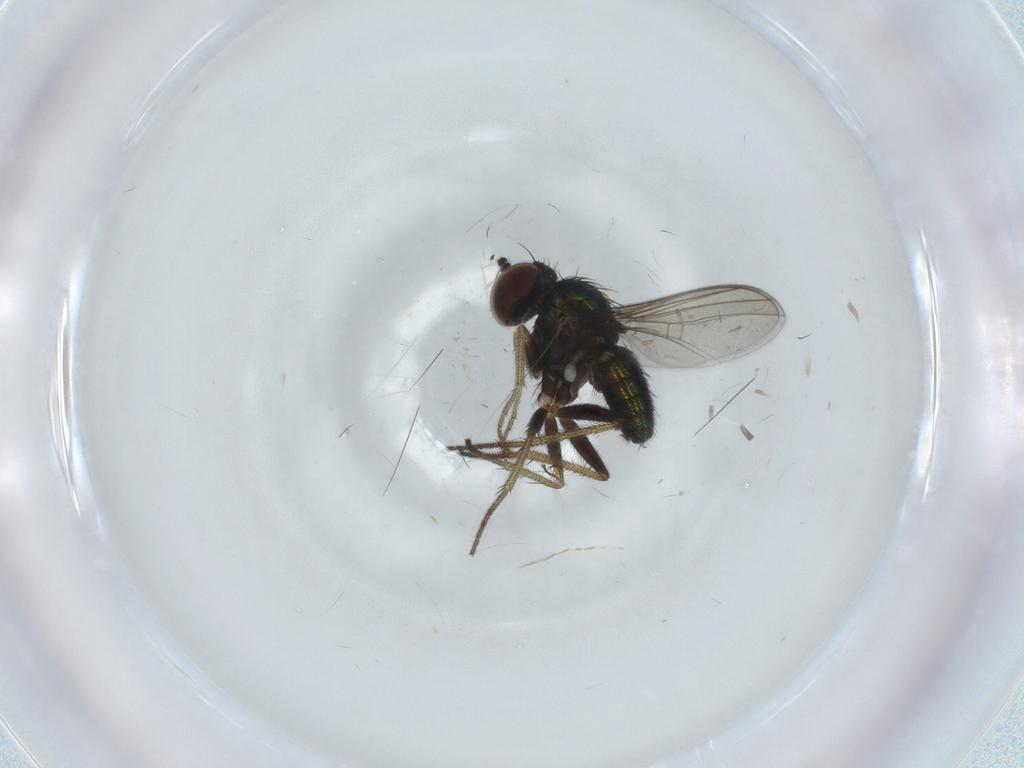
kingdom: Animalia
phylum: Arthropoda
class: Insecta
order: Diptera
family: Chironomidae
